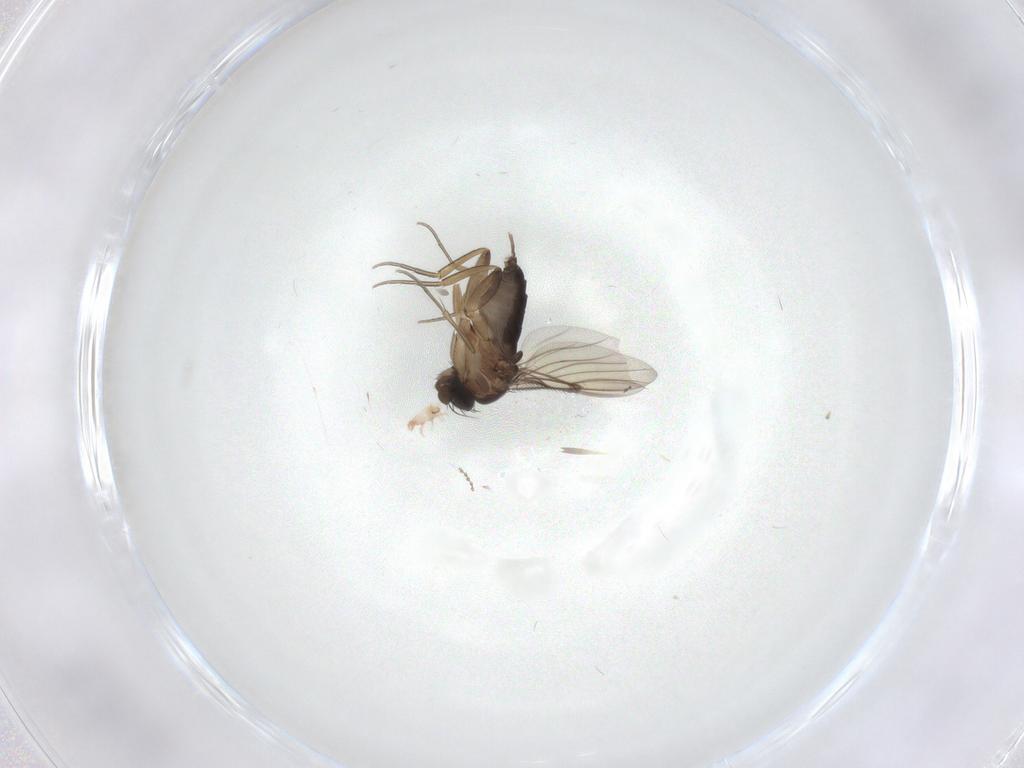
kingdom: Animalia
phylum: Arthropoda
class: Insecta
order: Diptera
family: Cecidomyiidae
